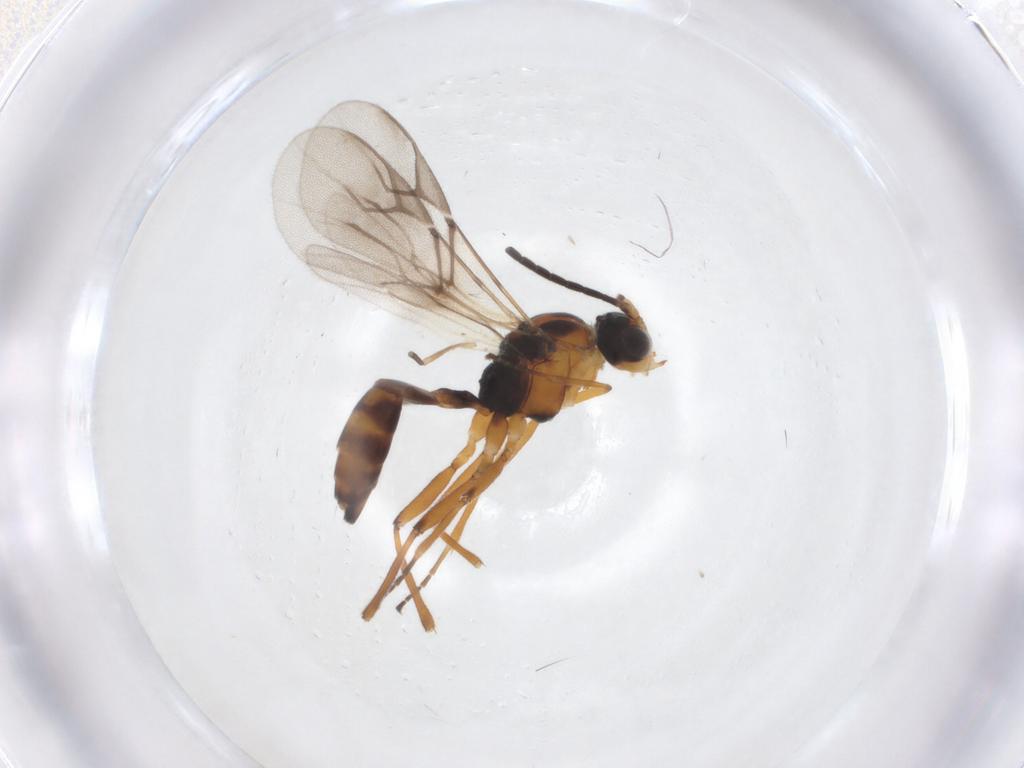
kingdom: Animalia
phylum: Arthropoda
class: Insecta
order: Hymenoptera
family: Braconidae
